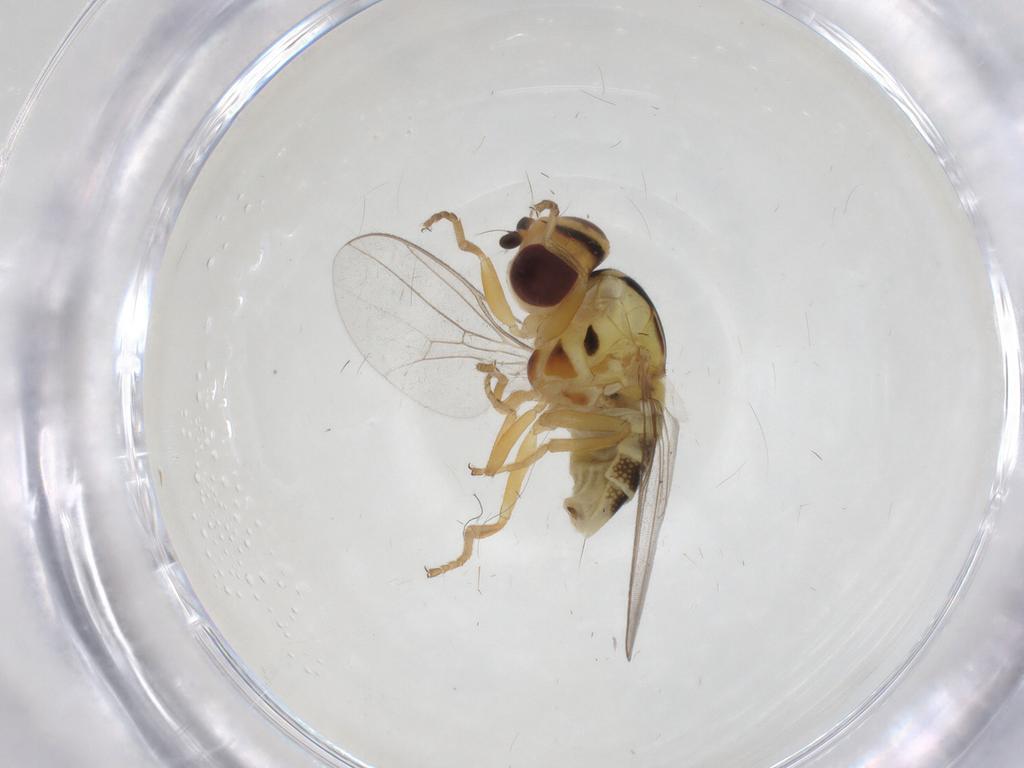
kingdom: Animalia
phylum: Arthropoda
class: Insecta
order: Diptera
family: Chloropidae
